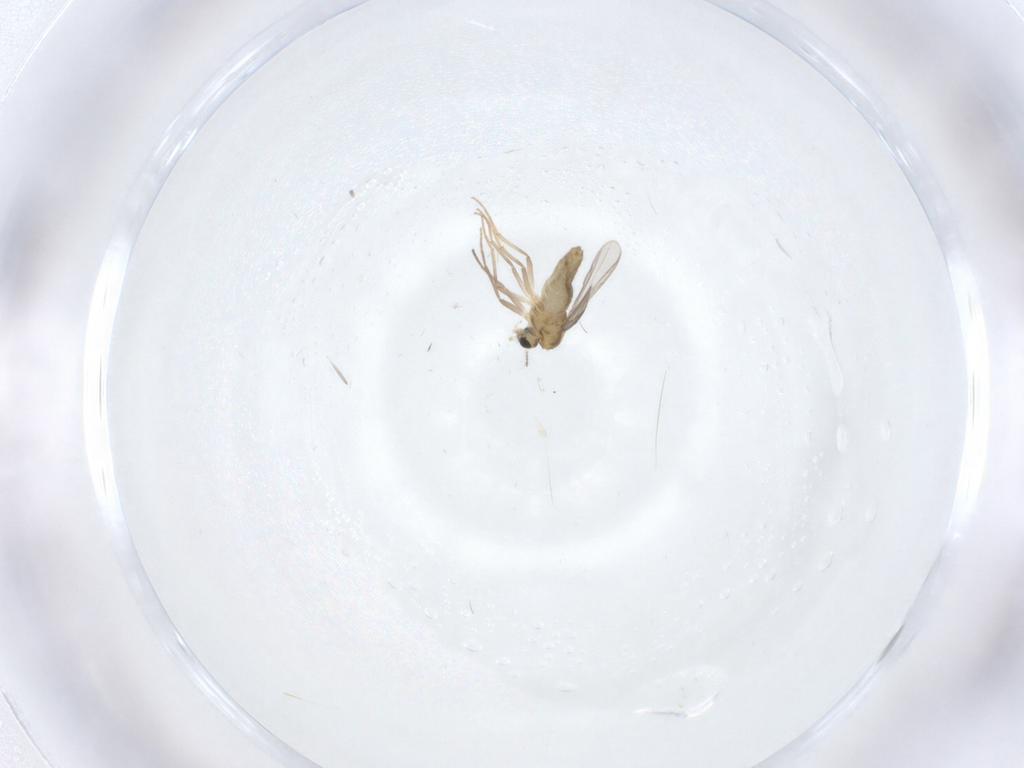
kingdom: Animalia
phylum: Arthropoda
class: Insecta
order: Diptera
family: Chironomidae
